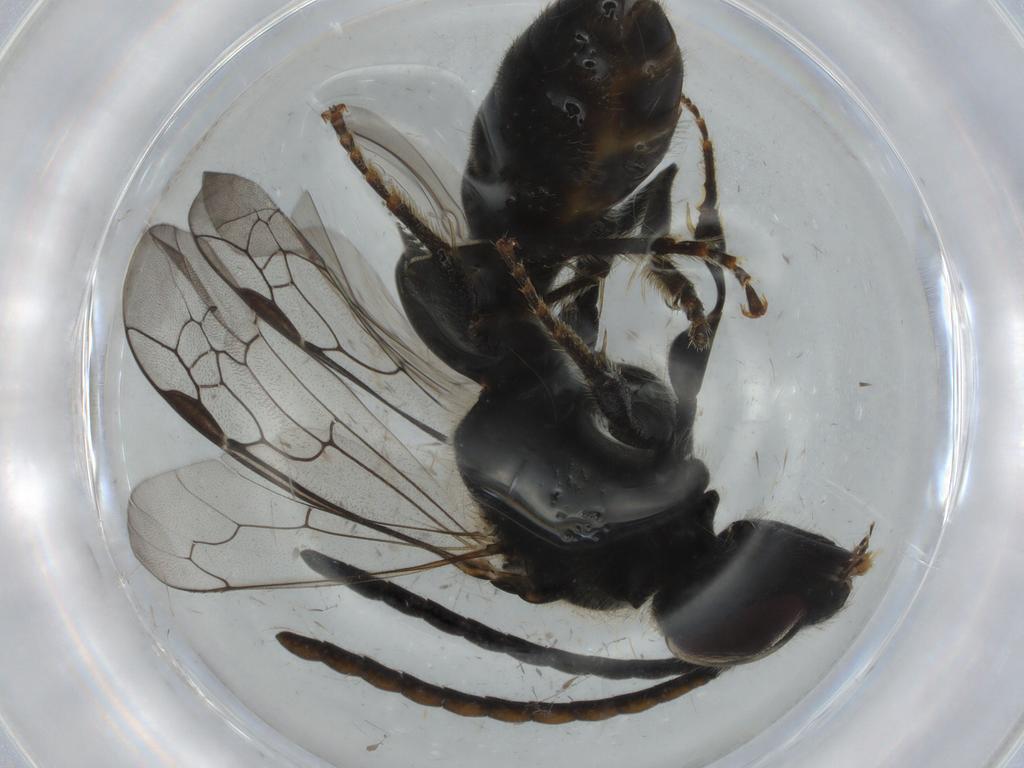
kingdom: Animalia
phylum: Arthropoda
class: Insecta
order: Hymenoptera
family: Halictidae
